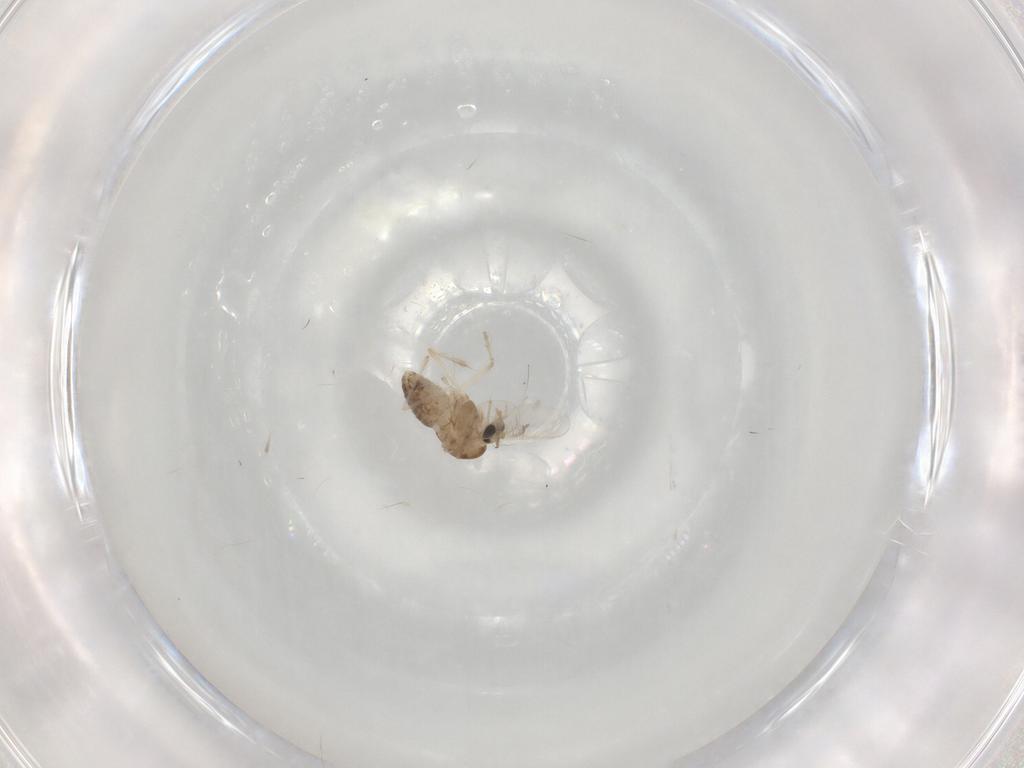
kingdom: Animalia
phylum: Arthropoda
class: Insecta
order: Diptera
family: Chironomidae
